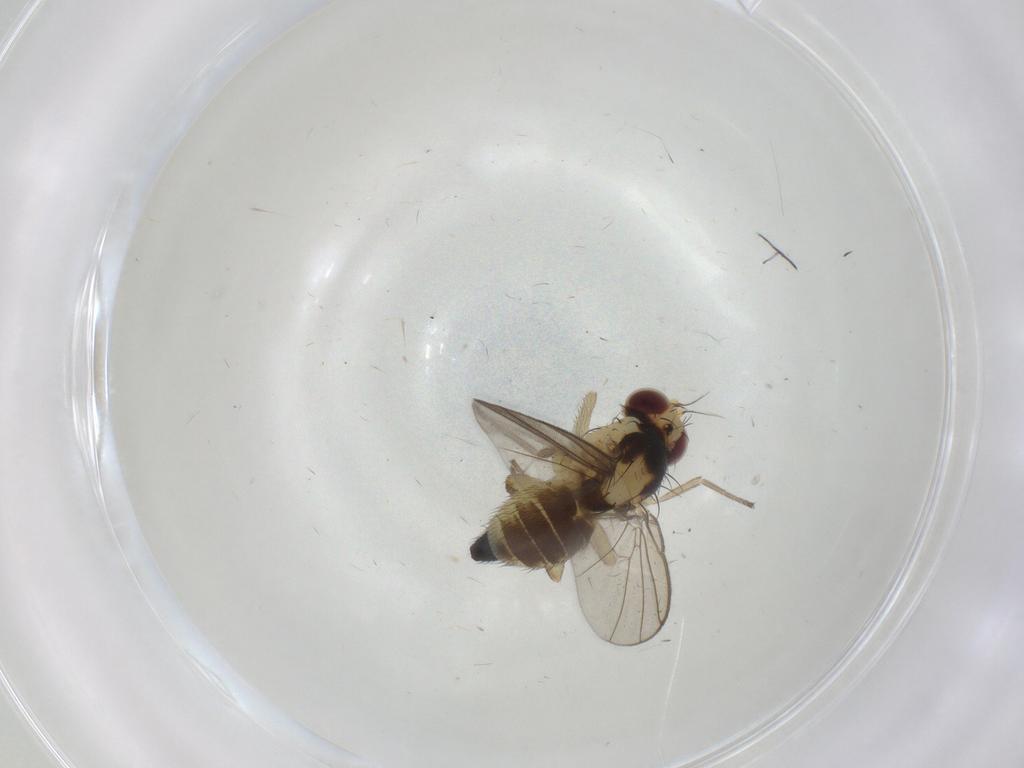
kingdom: Animalia
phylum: Arthropoda
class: Insecta
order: Diptera
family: Agromyzidae
